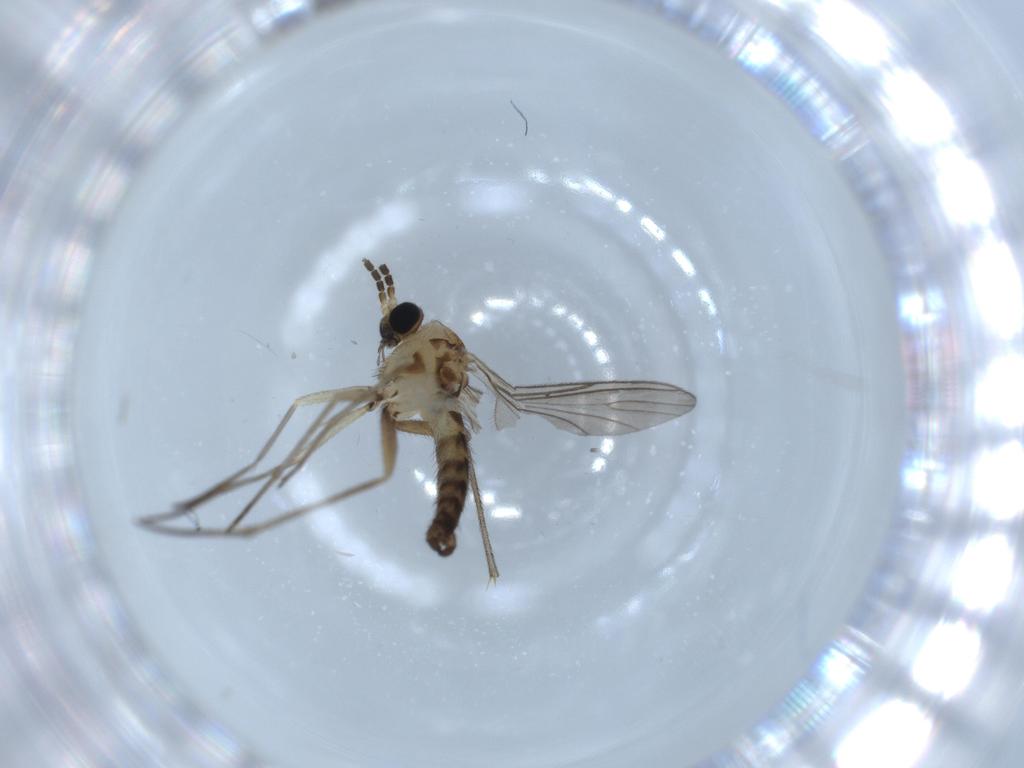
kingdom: Animalia
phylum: Arthropoda
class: Insecta
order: Diptera
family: Sciaridae
